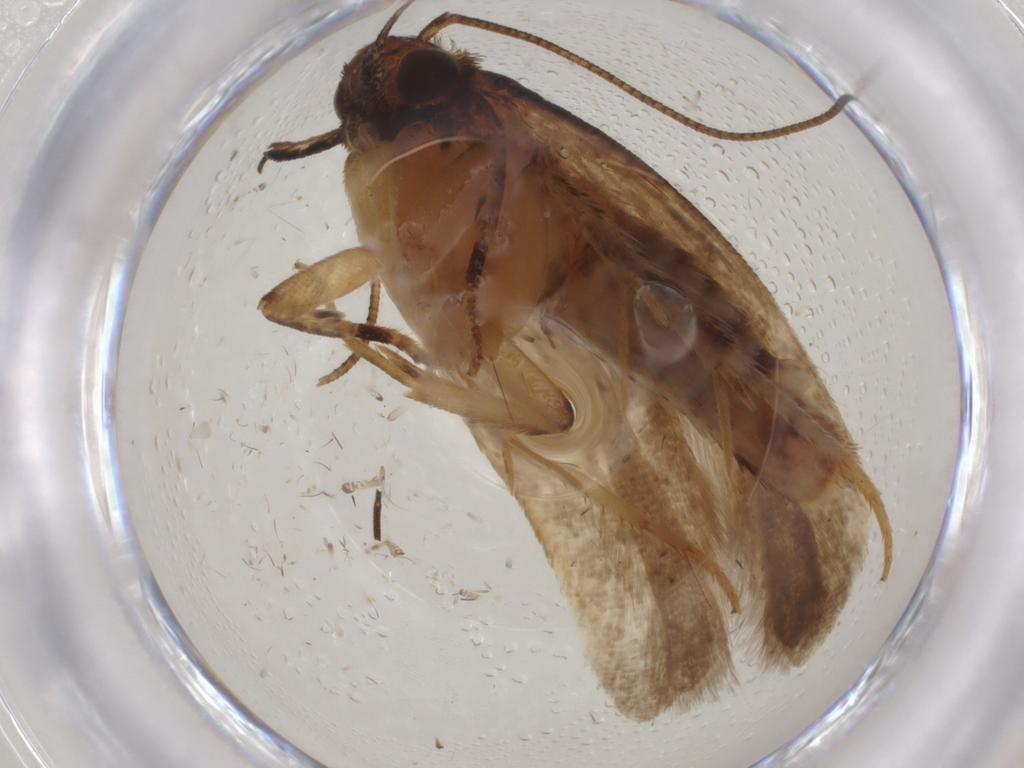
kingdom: Animalia
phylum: Arthropoda
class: Insecta
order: Lepidoptera
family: Gelechiidae
